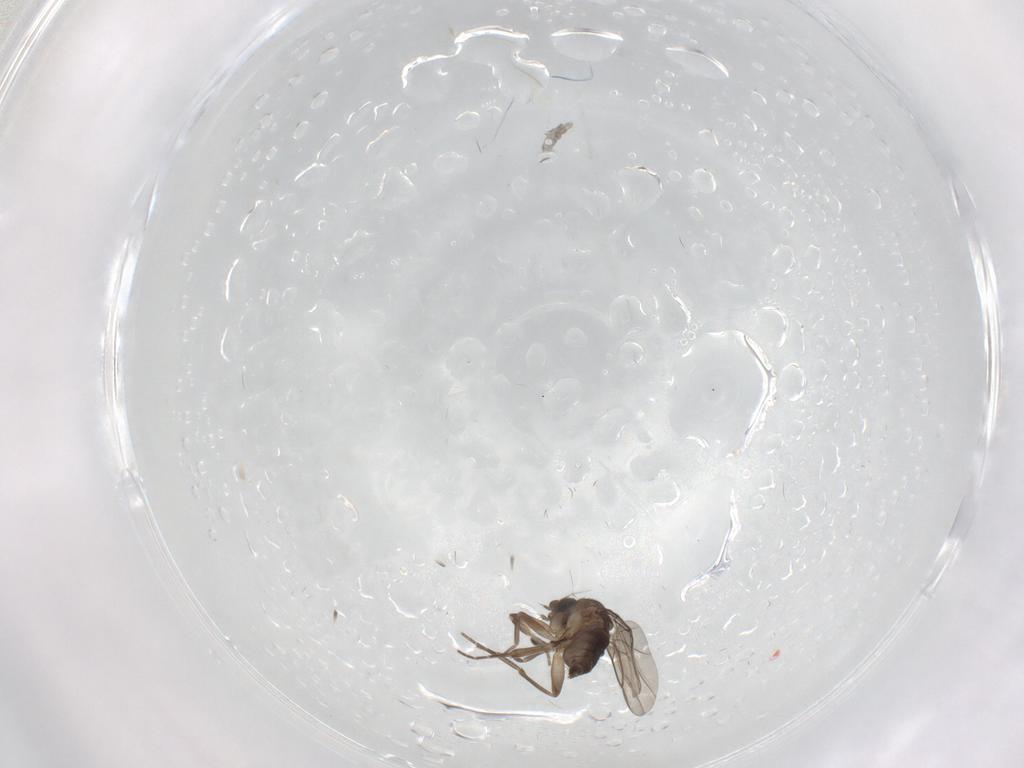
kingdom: Animalia
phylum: Arthropoda
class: Insecta
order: Diptera
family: Phoridae
